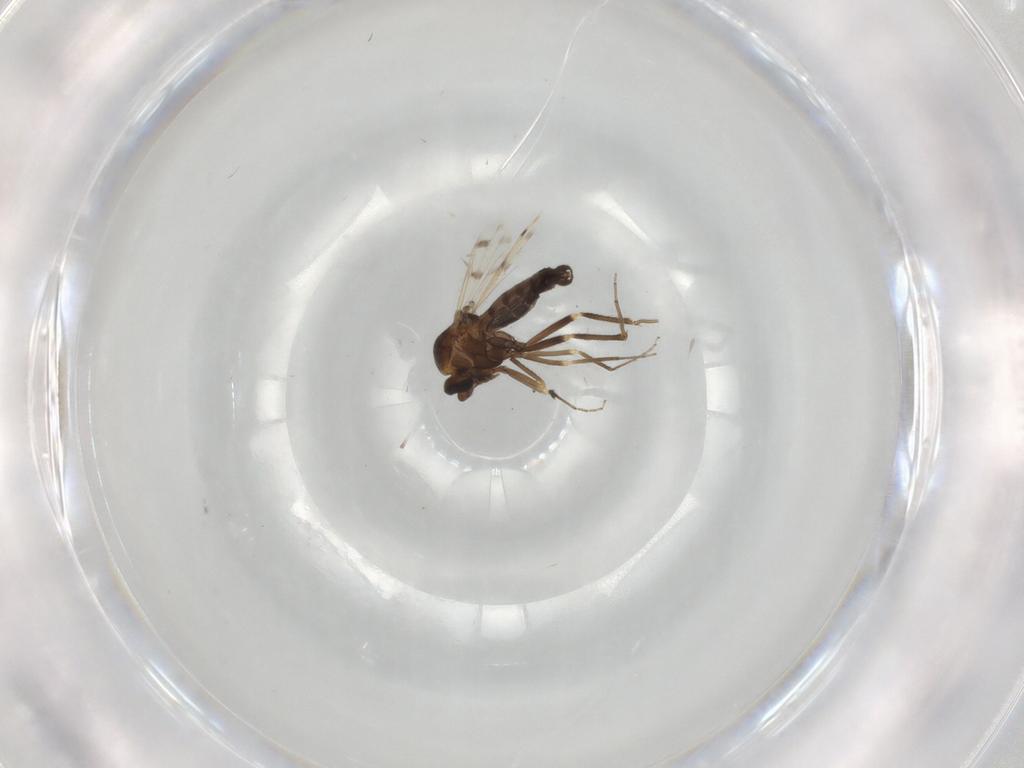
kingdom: Animalia
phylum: Arthropoda
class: Insecta
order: Diptera
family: Ceratopogonidae
